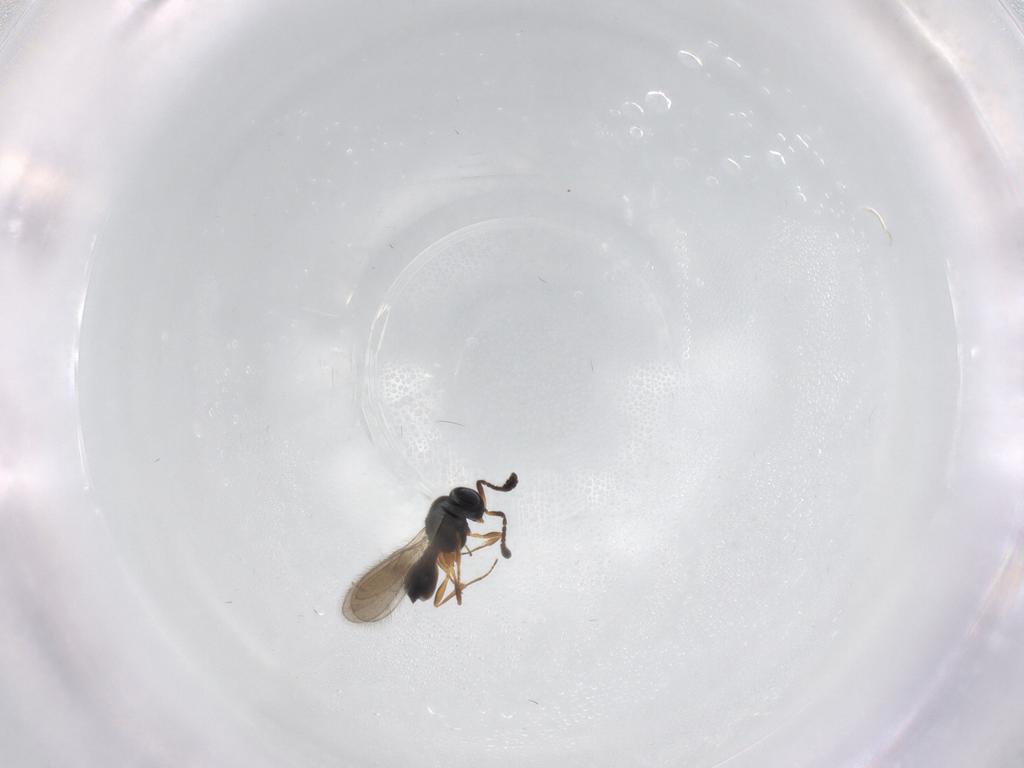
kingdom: Animalia
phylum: Arthropoda
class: Insecta
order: Hymenoptera
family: Scelionidae
